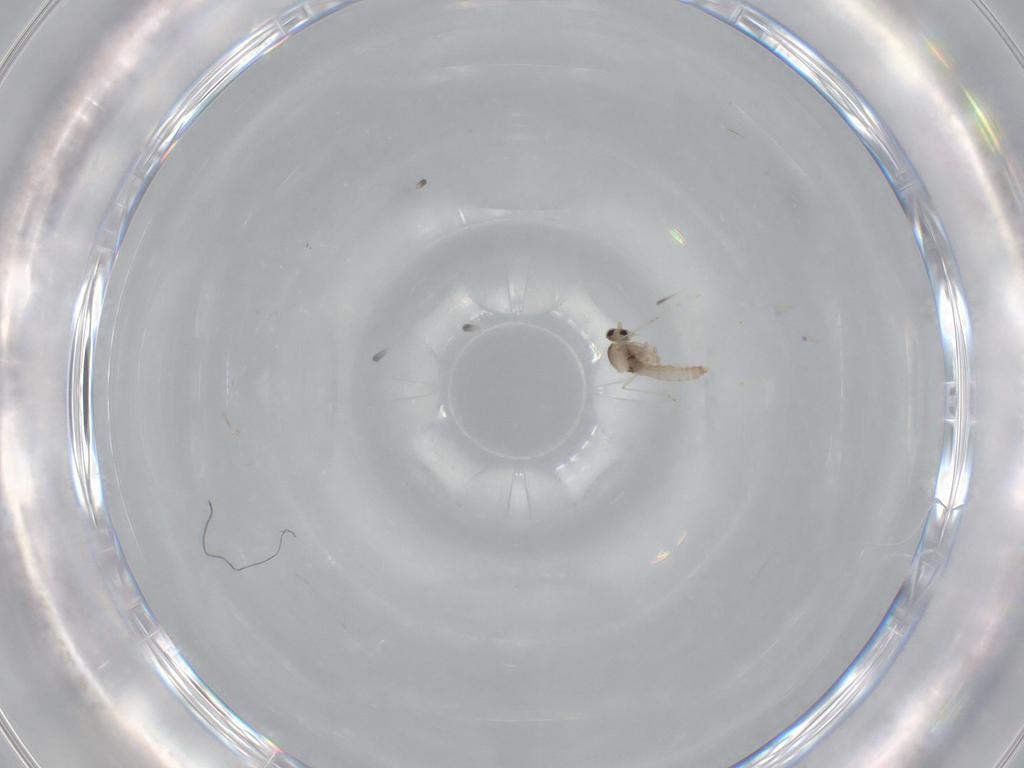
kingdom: Animalia
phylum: Arthropoda
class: Insecta
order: Diptera
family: Cecidomyiidae
